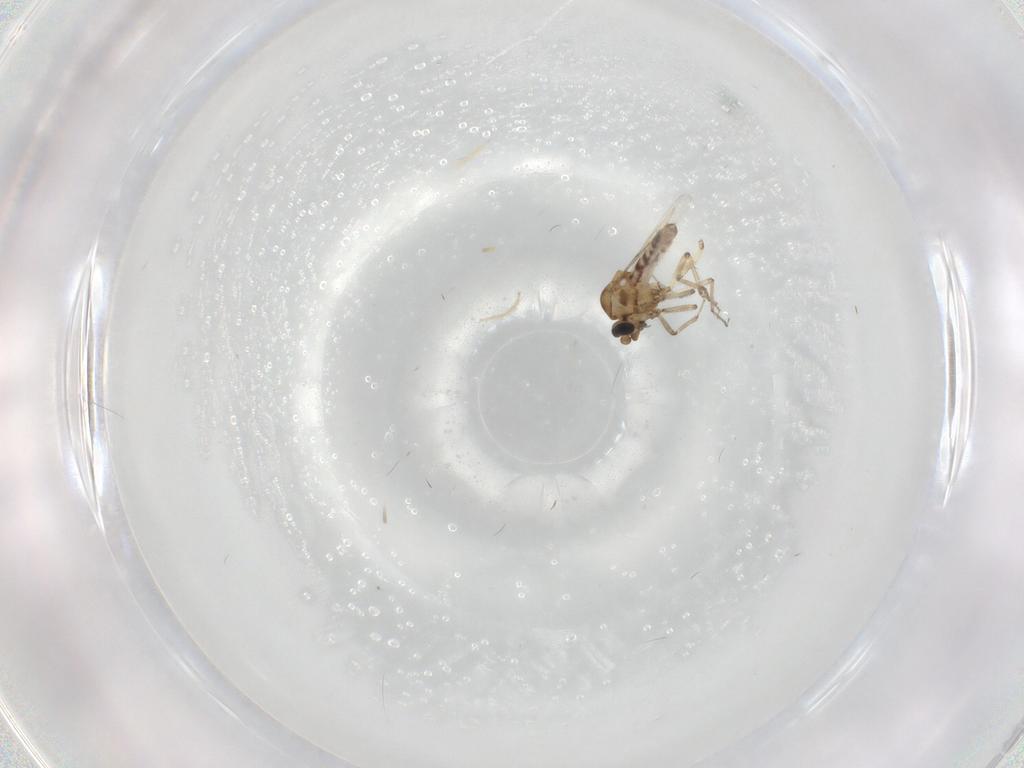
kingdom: Animalia
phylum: Arthropoda
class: Insecta
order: Diptera
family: Ceratopogonidae
